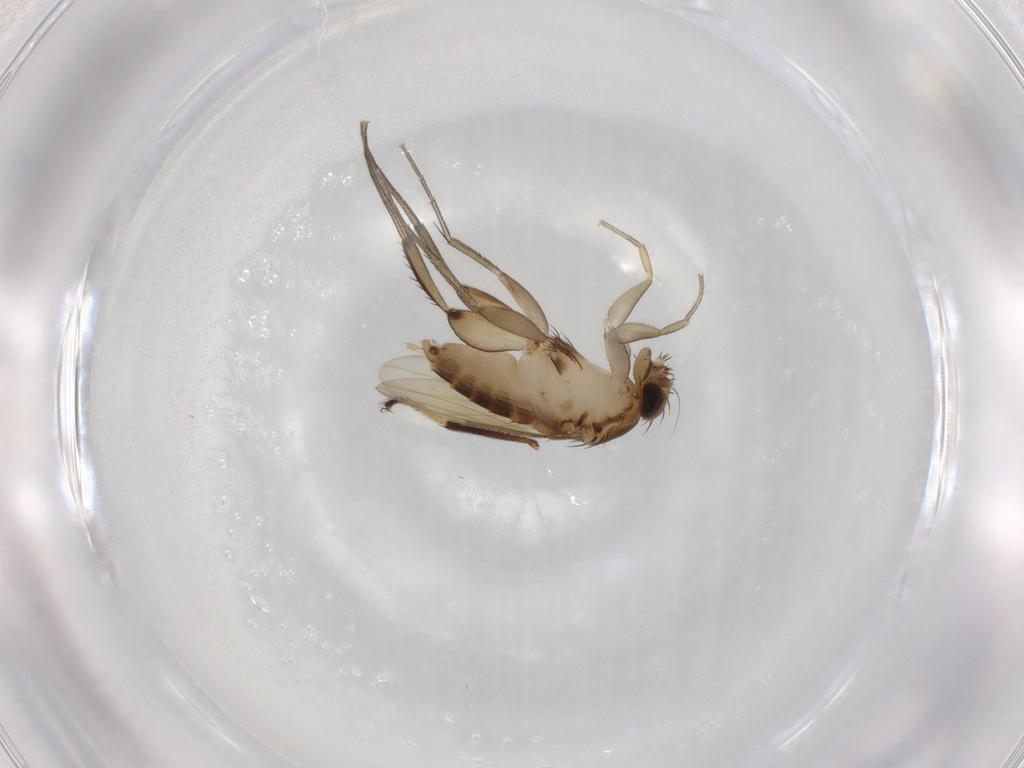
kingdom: Animalia
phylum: Arthropoda
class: Insecta
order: Diptera
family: Phoridae
